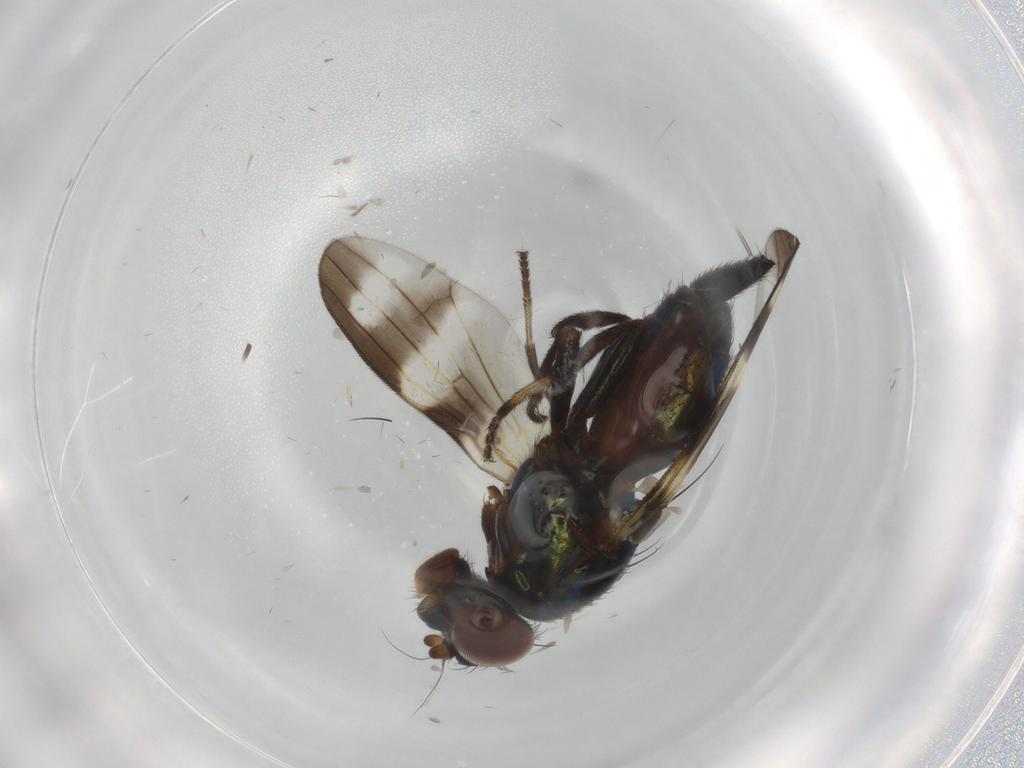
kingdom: Animalia
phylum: Arthropoda
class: Insecta
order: Diptera
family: Ulidiidae
